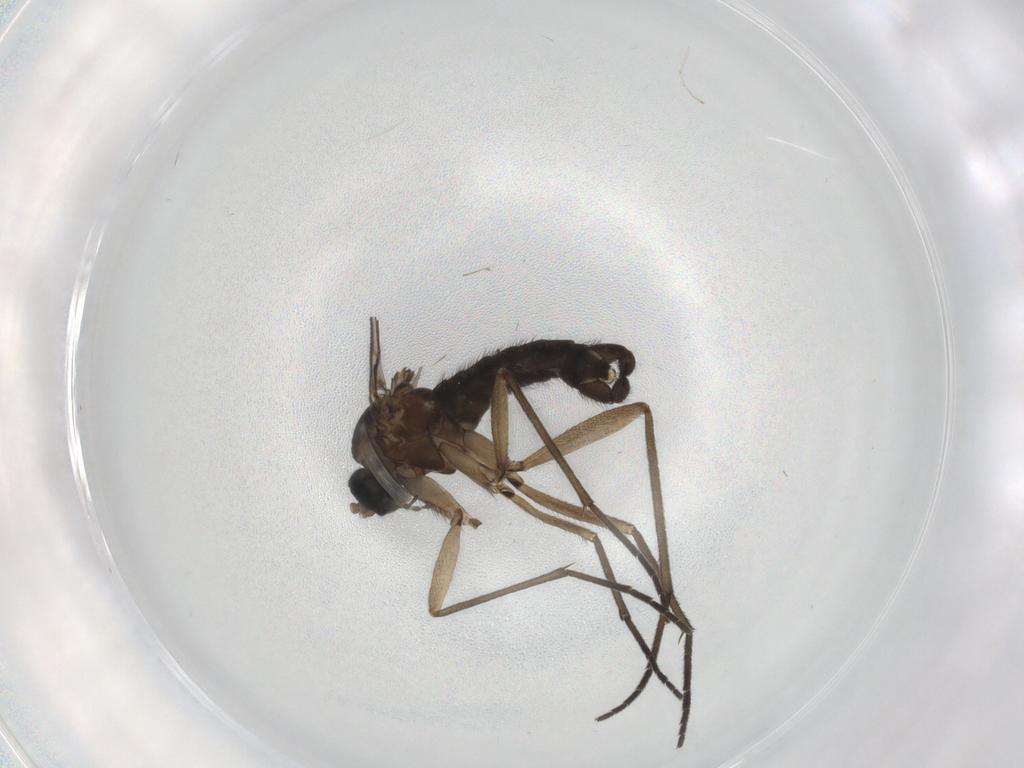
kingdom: Animalia
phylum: Arthropoda
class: Insecta
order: Diptera
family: Sciaridae
